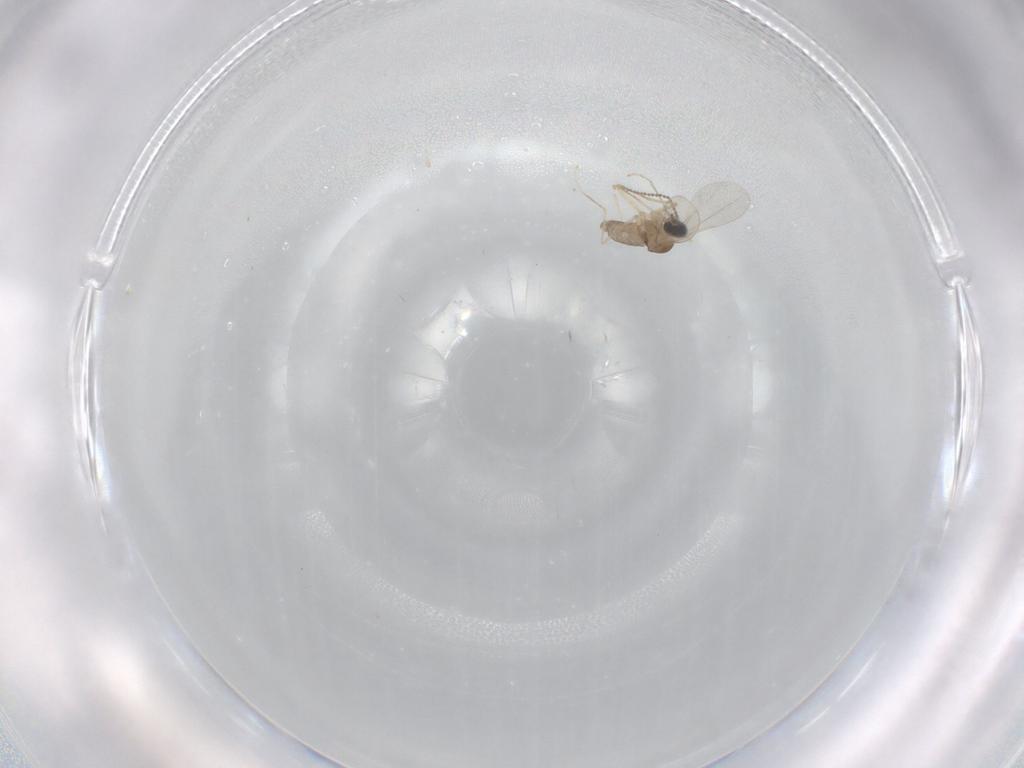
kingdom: Animalia
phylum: Arthropoda
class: Insecta
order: Diptera
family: Cecidomyiidae
